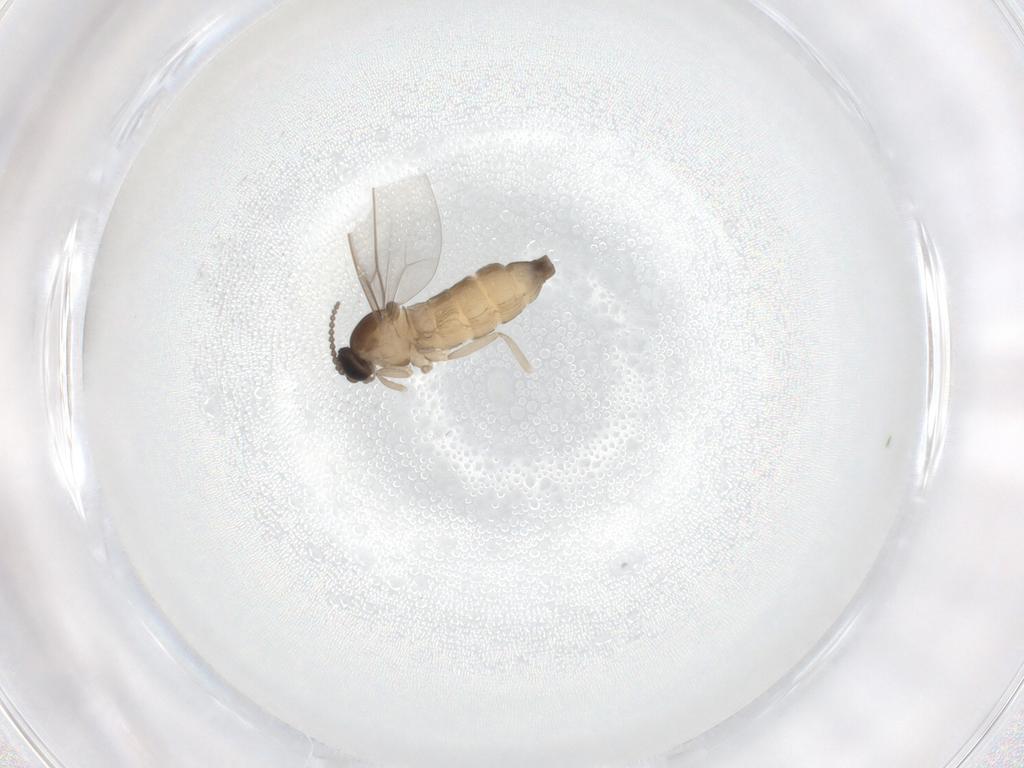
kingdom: Animalia
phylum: Arthropoda
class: Insecta
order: Diptera
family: Cecidomyiidae
